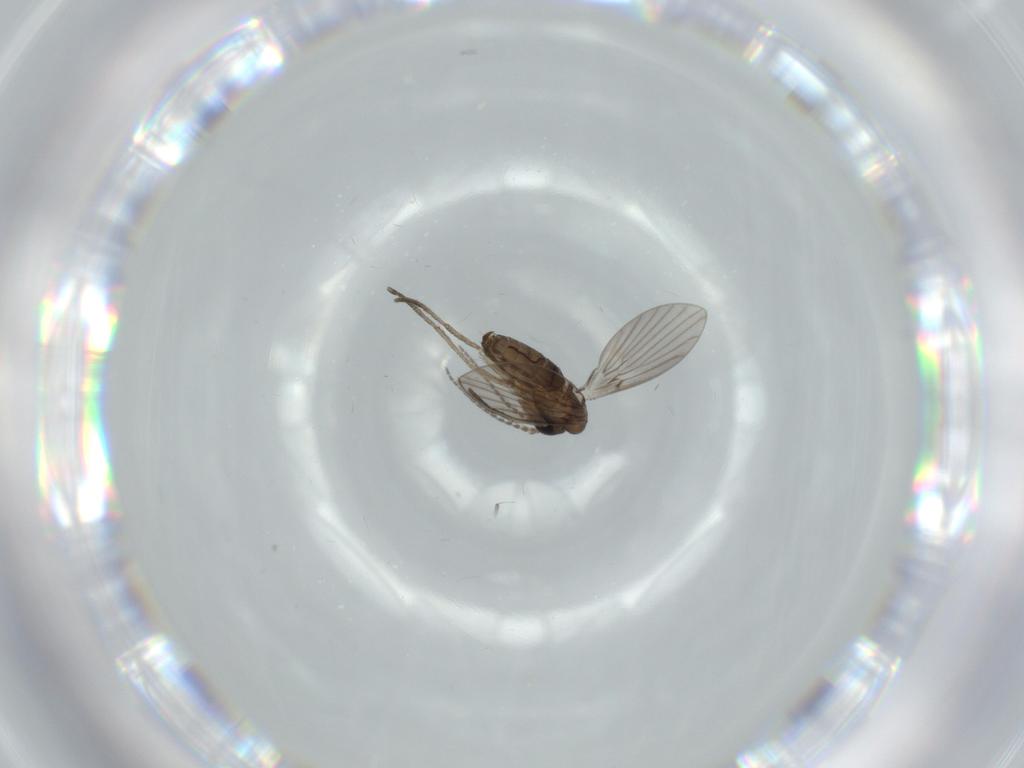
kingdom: Animalia
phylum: Arthropoda
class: Insecta
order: Diptera
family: Psychodidae
